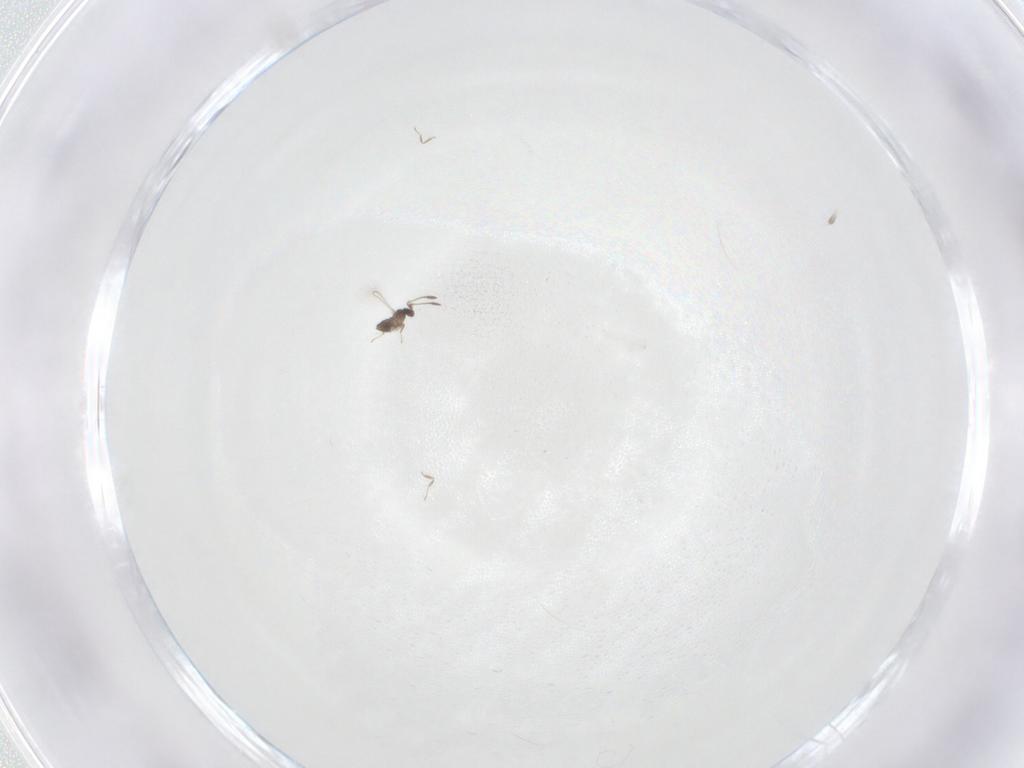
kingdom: Animalia
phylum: Arthropoda
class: Insecta
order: Hymenoptera
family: Mymaridae
